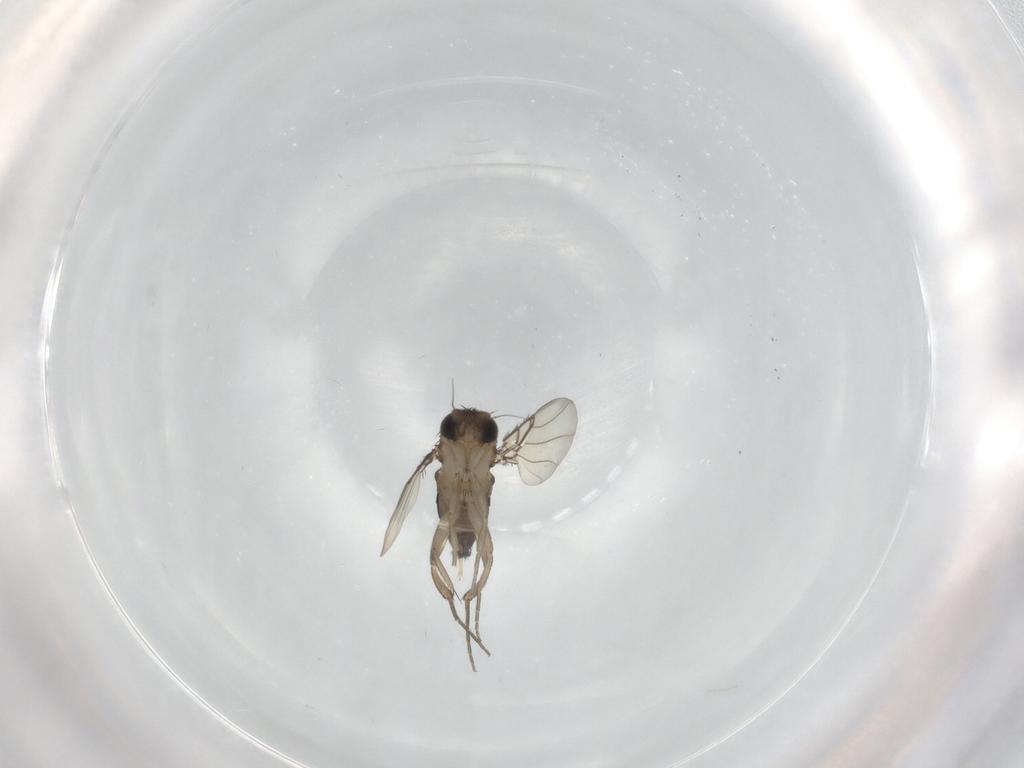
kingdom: Animalia
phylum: Arthropoda
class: Insecta
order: Diptera
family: Phoridae
